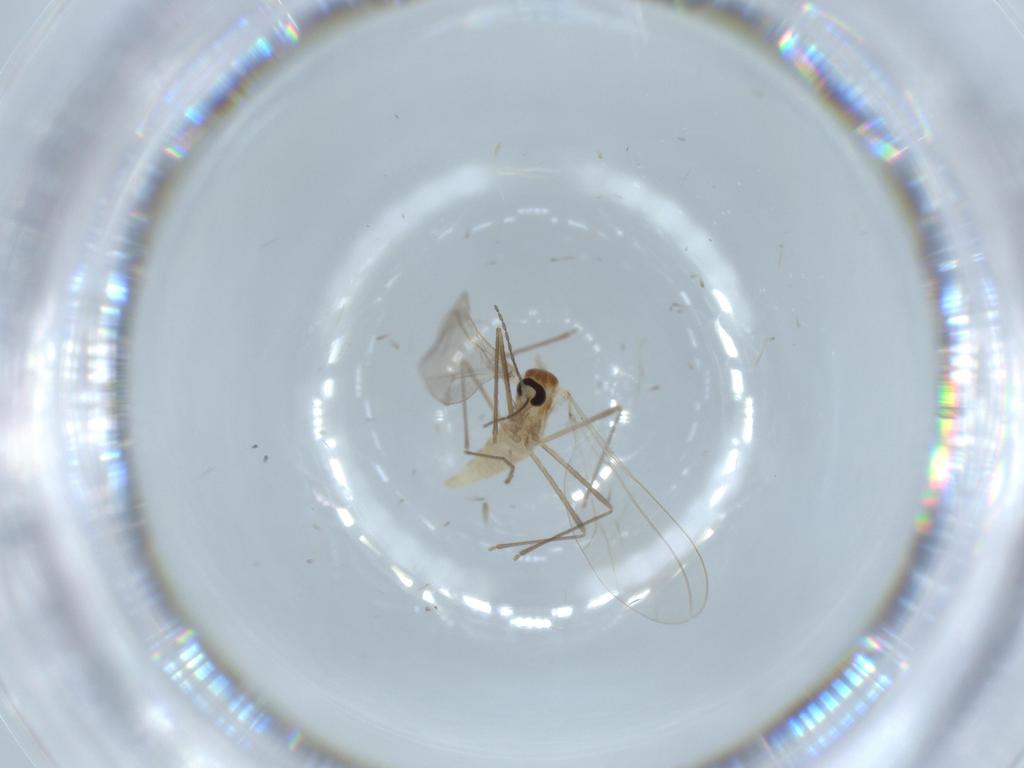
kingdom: Animalia
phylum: Arthropoda
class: Insecta
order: Diptera
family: Cecidomyiidae
